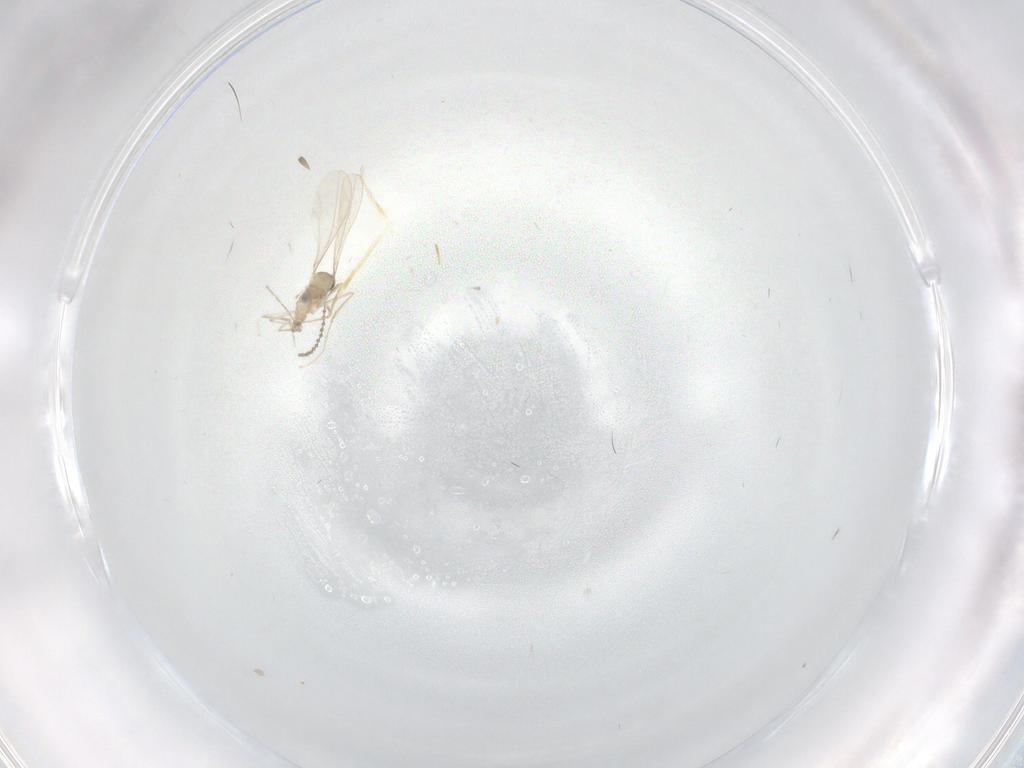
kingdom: Animalia
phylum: Arthropoda
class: Insecta
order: Diptera
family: Cecidomyiidae
